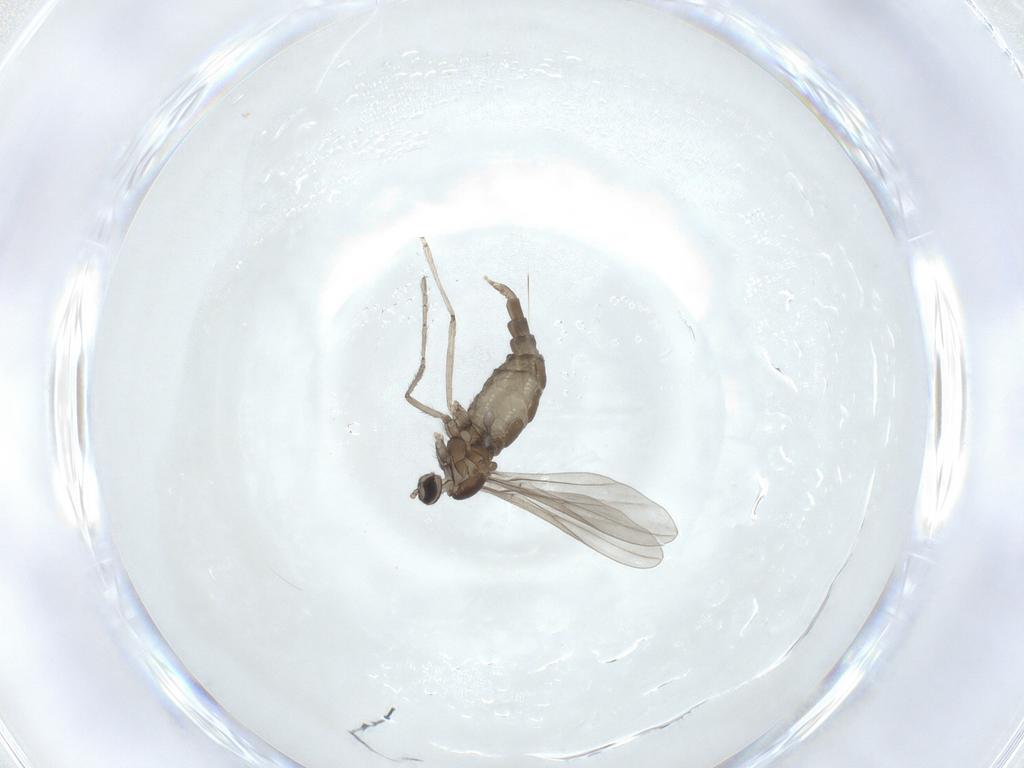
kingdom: Animalia
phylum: Arthropoda
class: Insecta
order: Diptera
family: Cecidomyiidae
